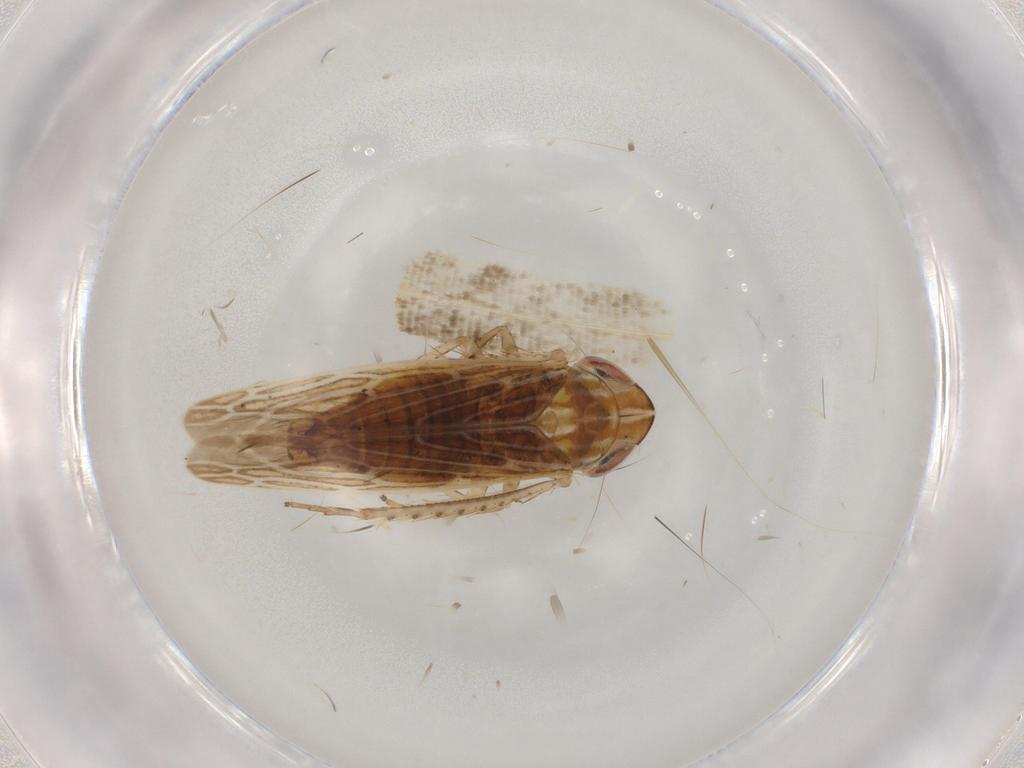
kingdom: Animalia
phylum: Arthropoda
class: Insecta
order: Hemiptera
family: Cicadellidae
